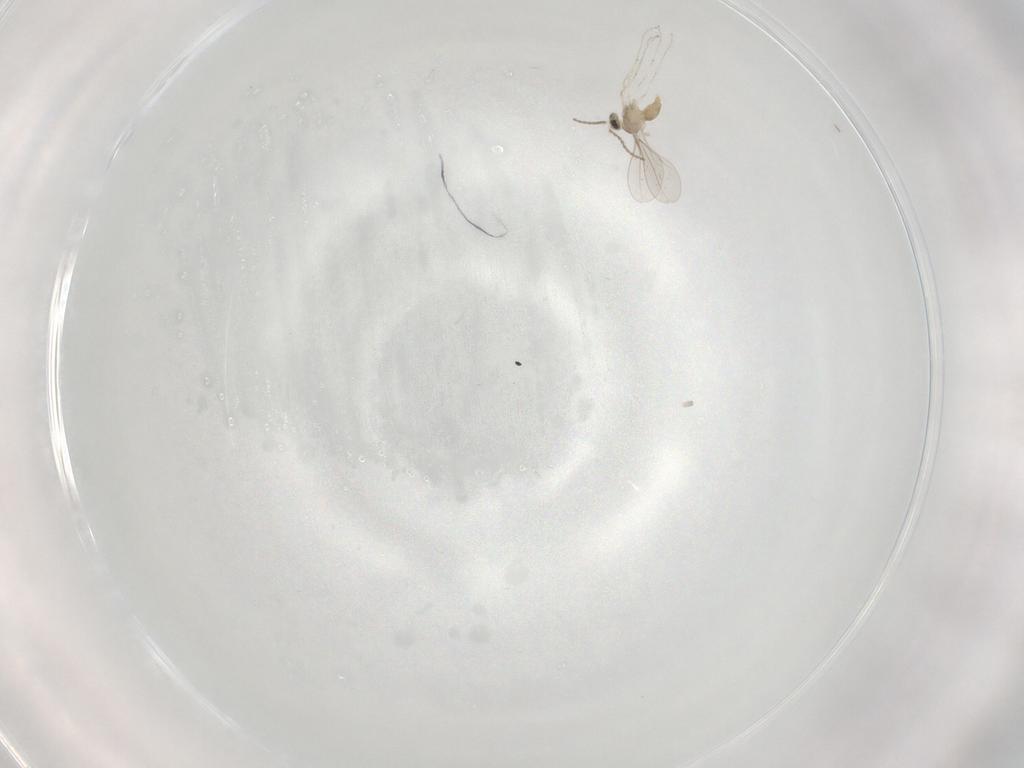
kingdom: Animalia
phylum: Arthropoda
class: Insecta
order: Diptera
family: Cecidomyiidae
